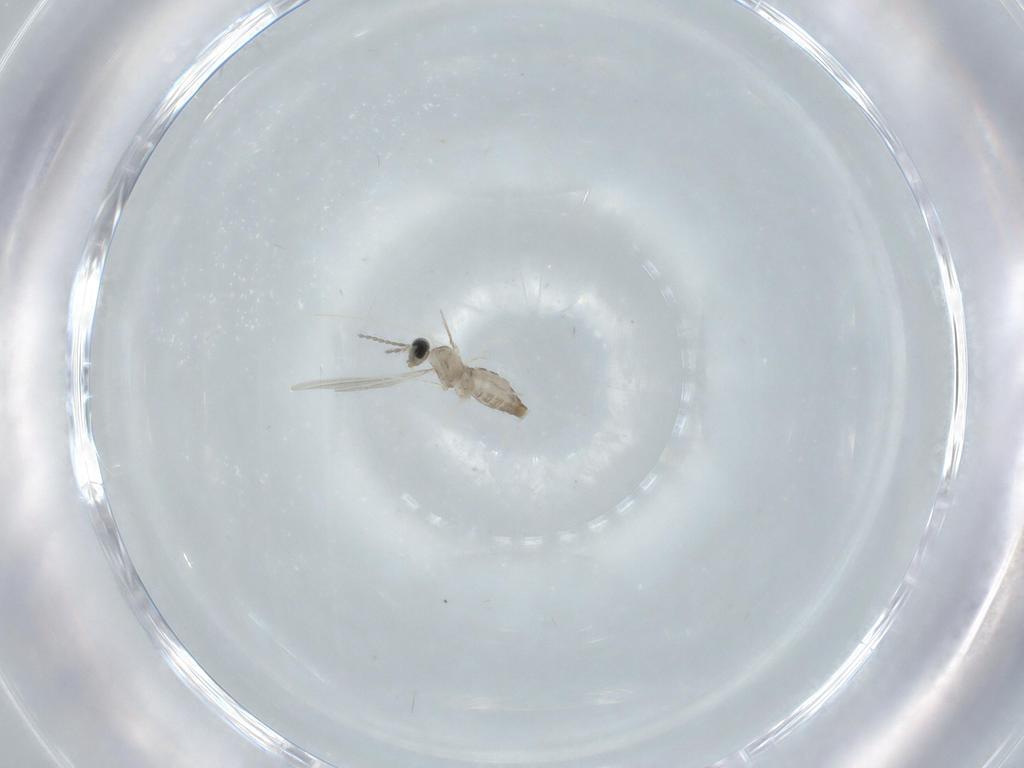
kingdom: Animalia
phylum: Arthropoda
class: Insecta
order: Diptera
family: Cecidomyiidae
